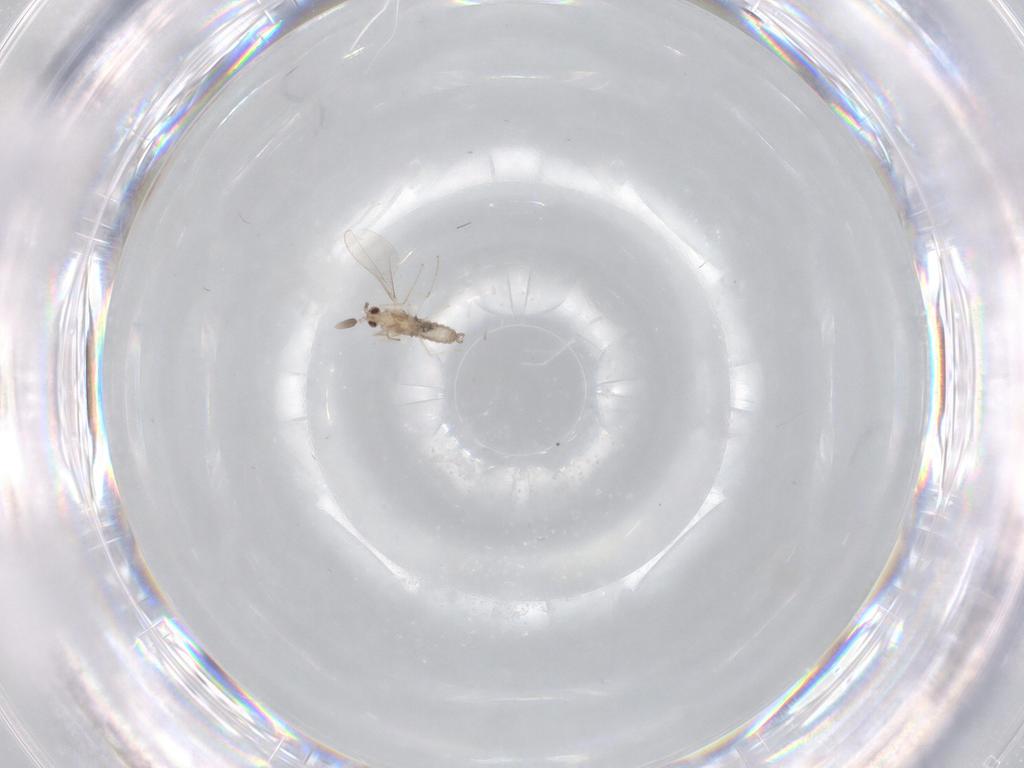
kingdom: Animalia
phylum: Arthropoda
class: Insecta
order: Diptera
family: Cecidomyiidae
